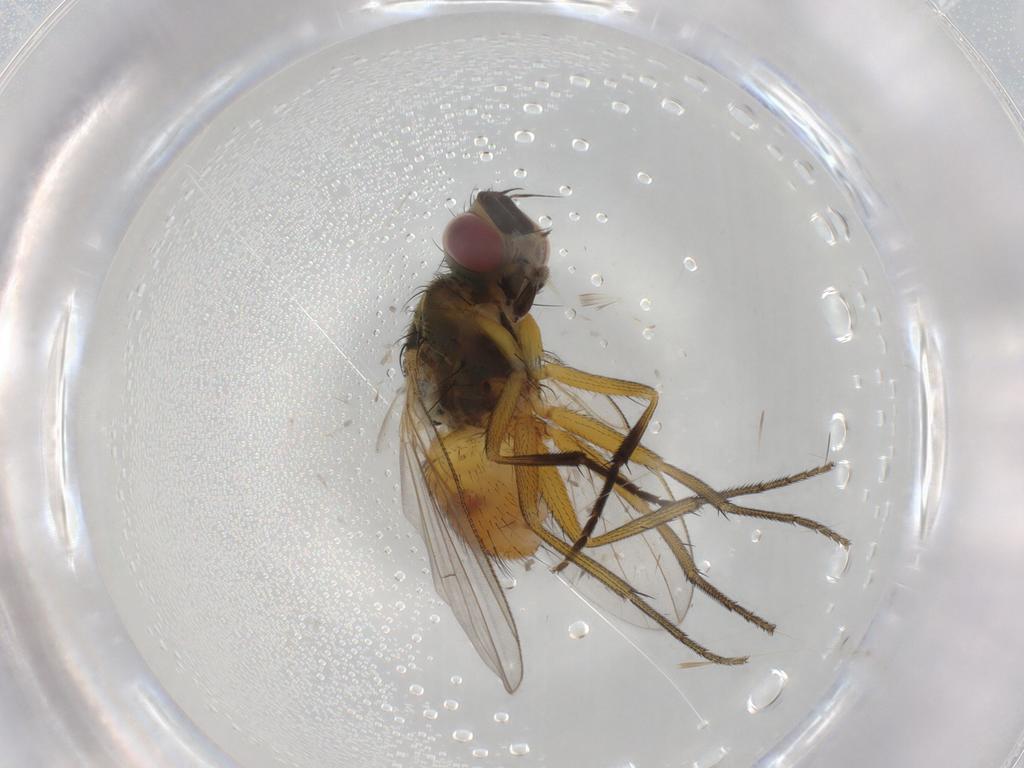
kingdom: Animalia
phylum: Arthropoda
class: Insecta
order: Diptera
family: Muscidae
